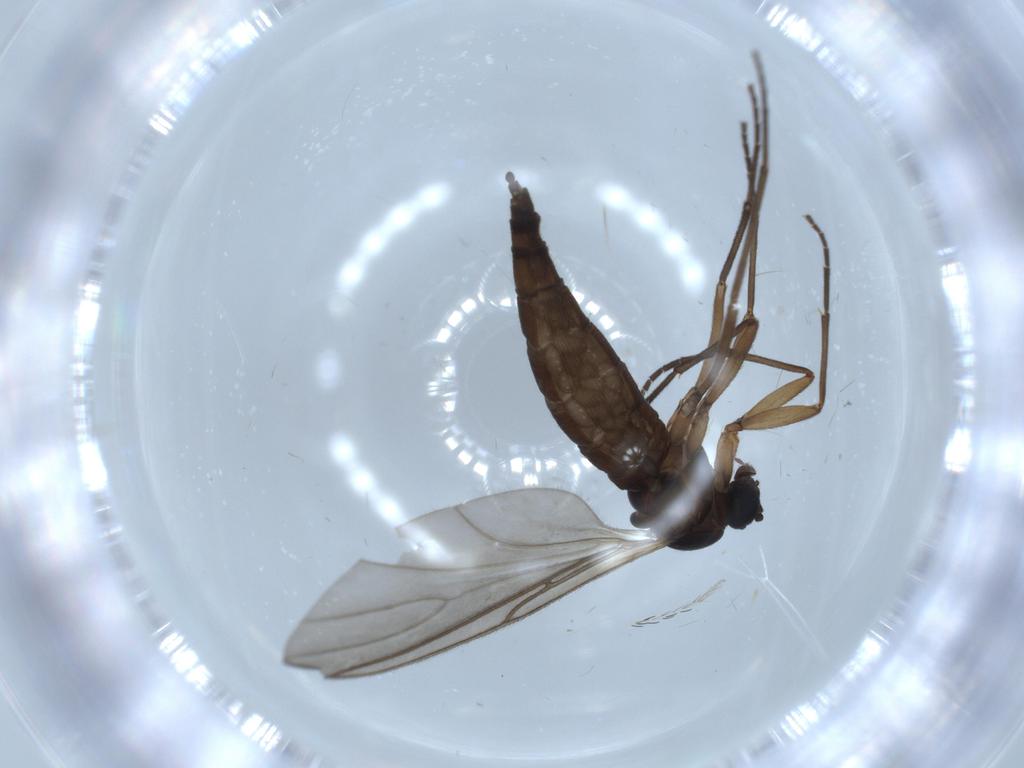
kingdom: Animalia
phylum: Arthropoda
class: Insecta
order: Diptera
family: Sciaridae
